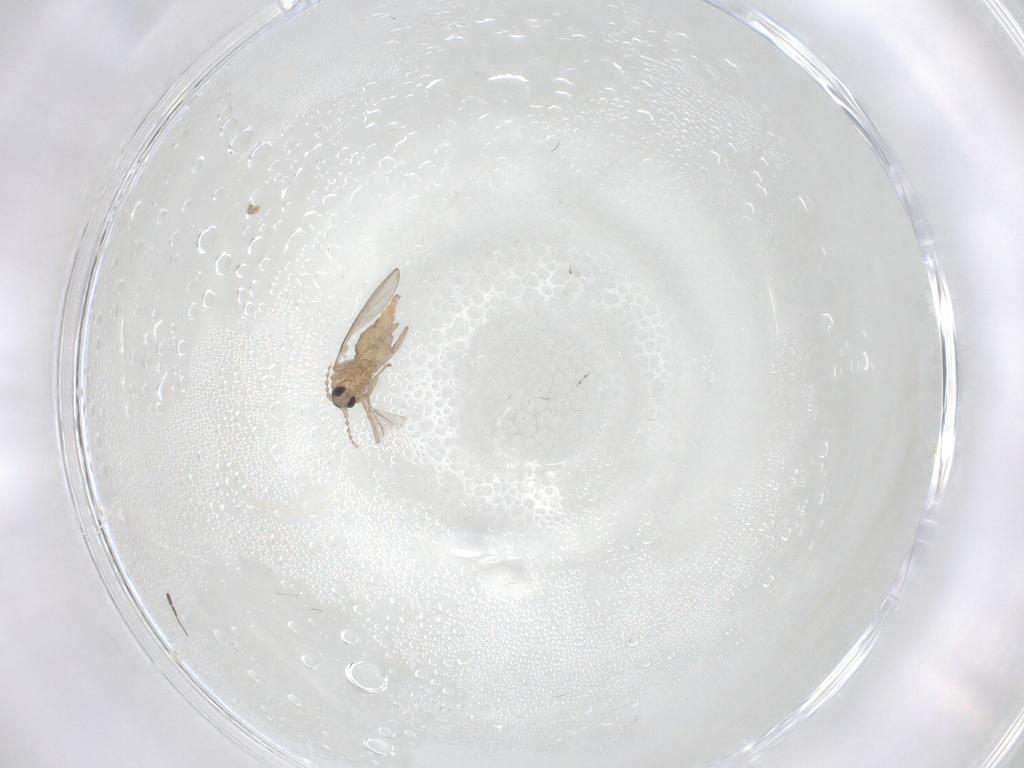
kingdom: Animalia
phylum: Arthropoda
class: Insecta
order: Diptera
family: Cecidomyiidae
